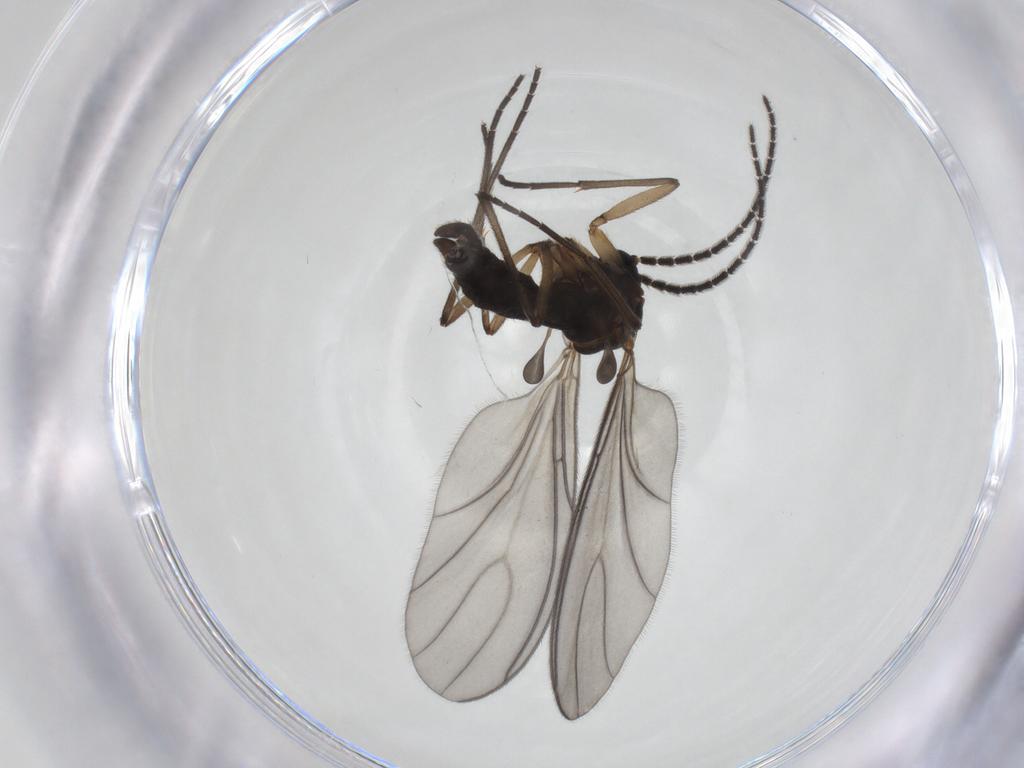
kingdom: Animalia
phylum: Arthropoda
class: Insecta
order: Diptera
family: Sciaridae
